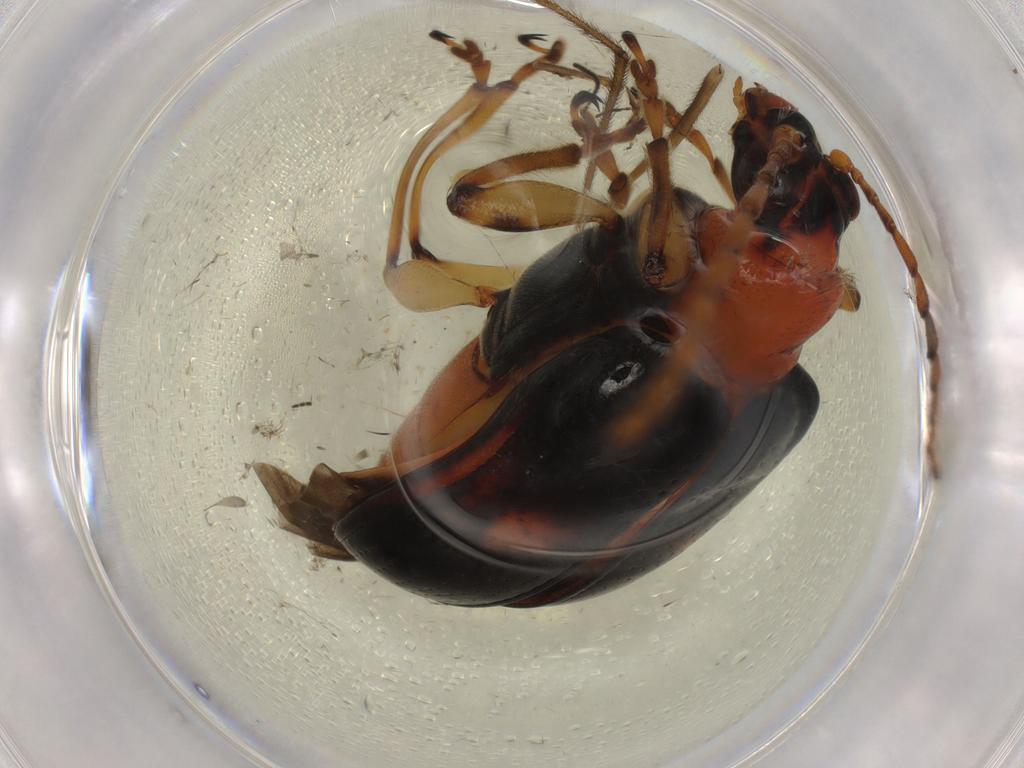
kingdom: Animalia
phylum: Arthropoda
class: Insecta
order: Coleoptera
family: Chrysomelidae
